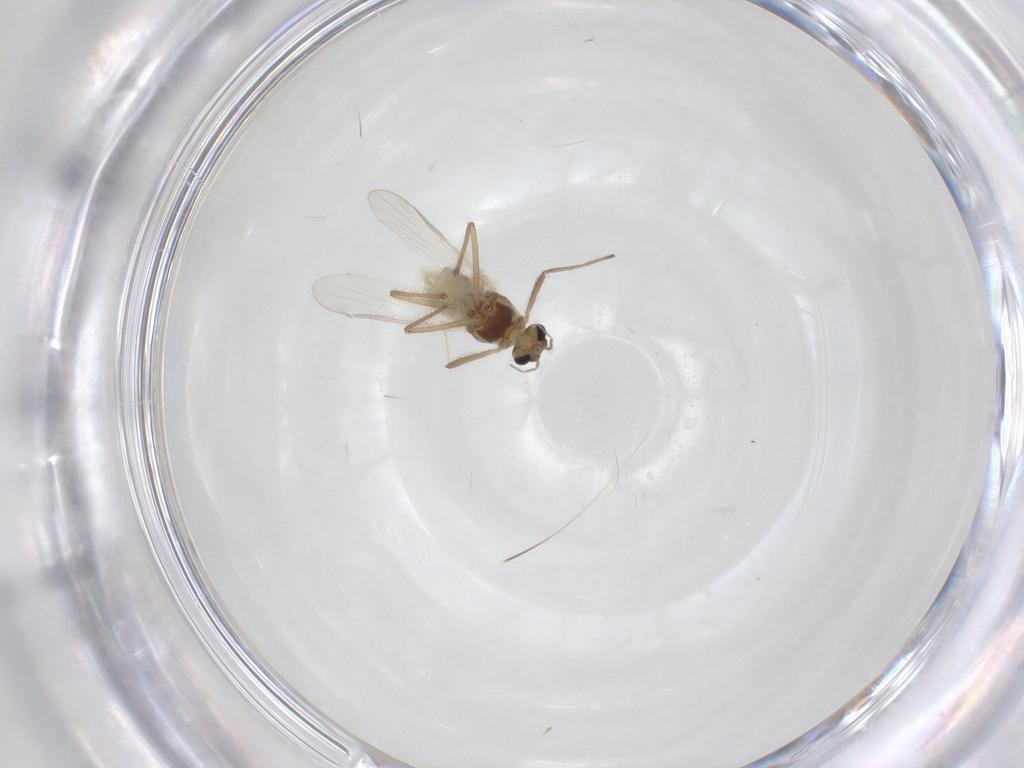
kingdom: Animalia
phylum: Arthropoda
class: Insecta
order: Diptera
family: Chironomidae
